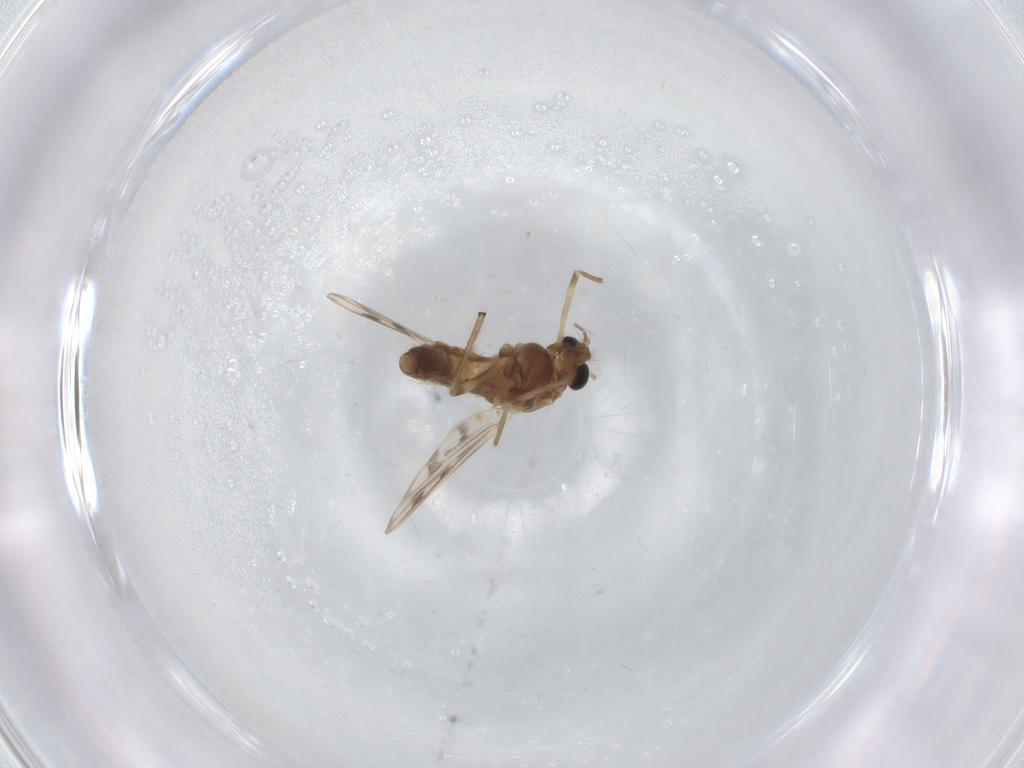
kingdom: Animalia
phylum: Arthropoda
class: Insecta
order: Diptera
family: Chironomidae
